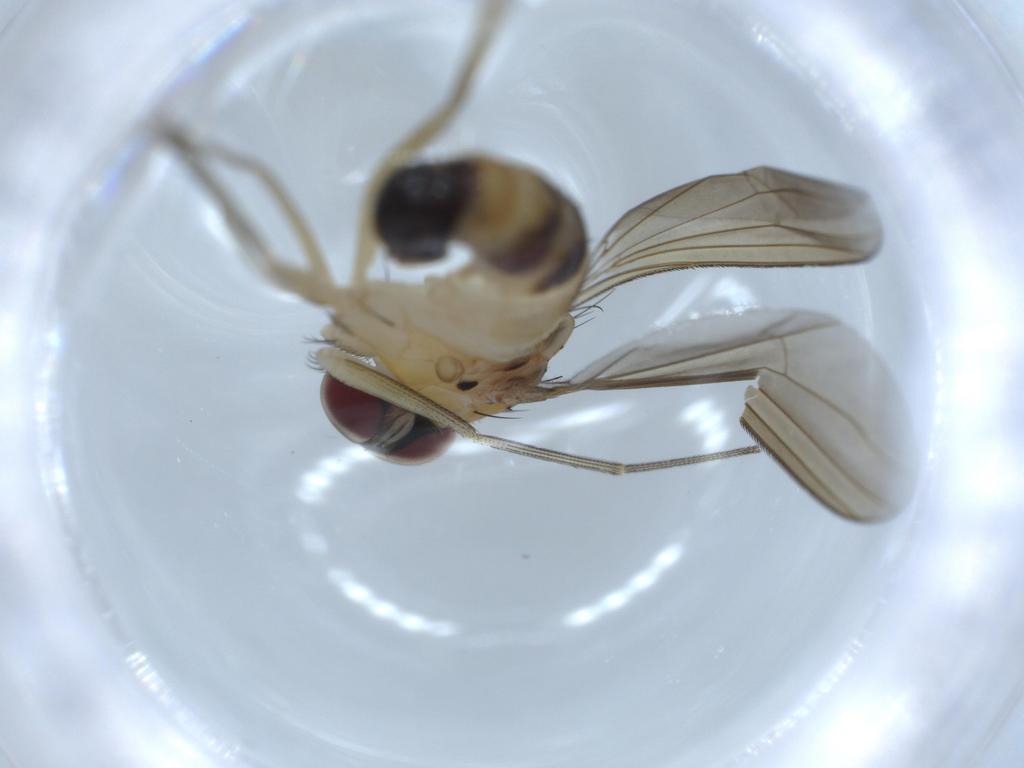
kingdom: Animalia
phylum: Arthropoda
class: Insecta
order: Diptera
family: Dolichopodidae
